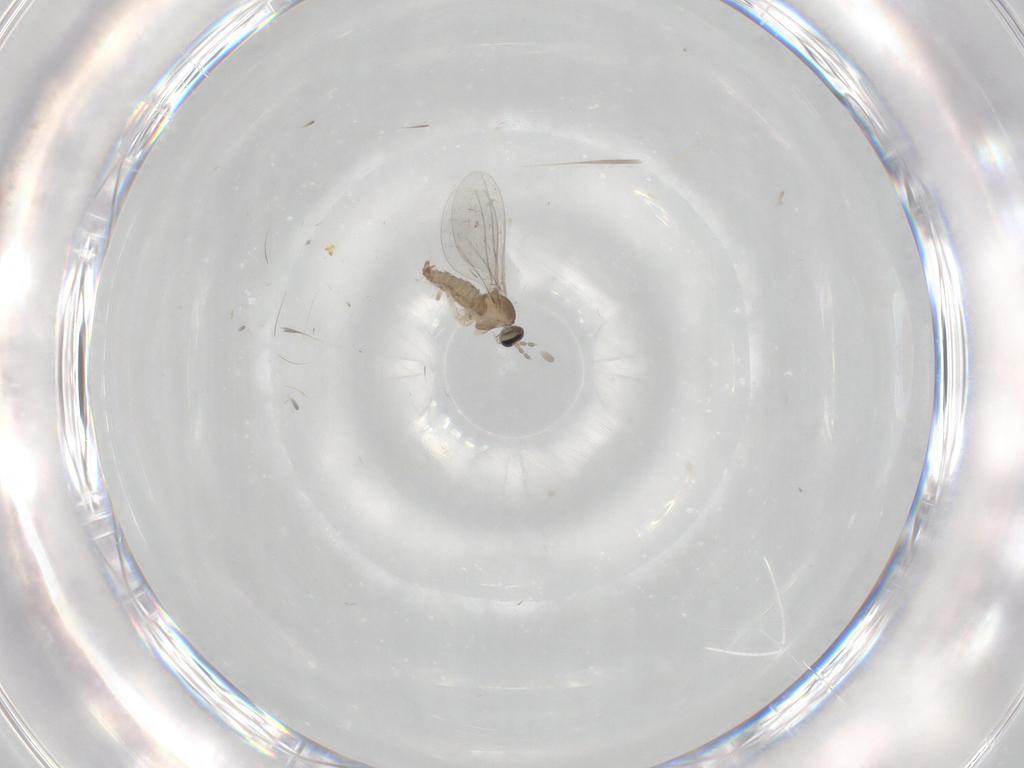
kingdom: Animalia
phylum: Arthropoda
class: Insecta
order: Diptera
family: Cecidomyiidae
